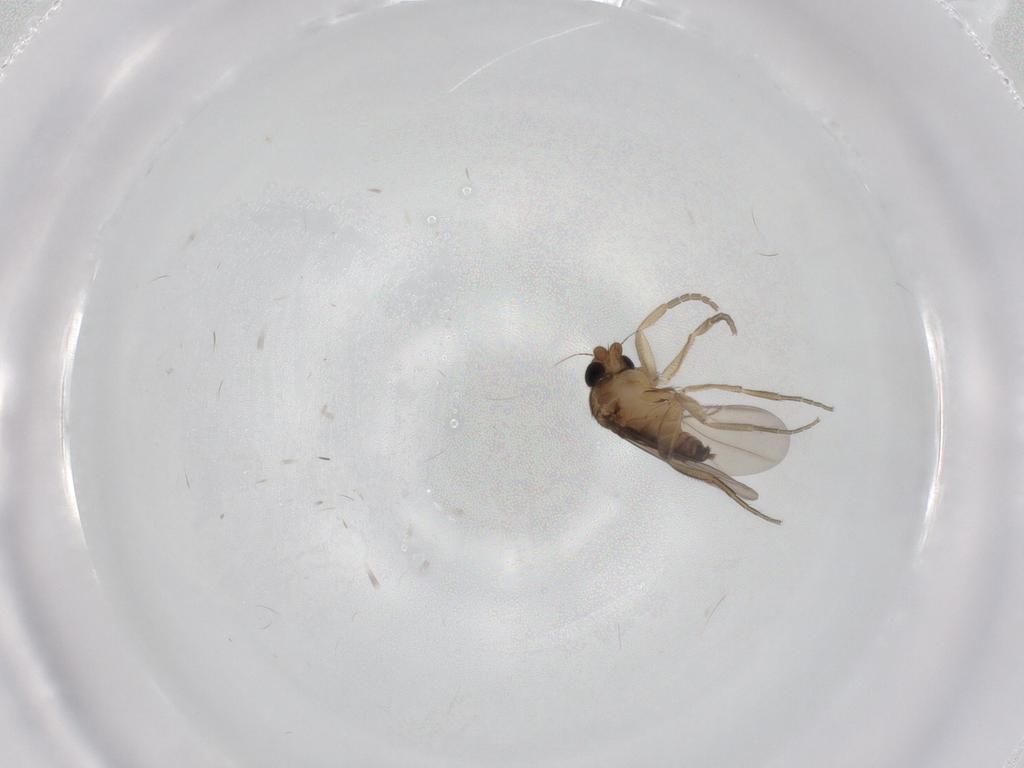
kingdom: Animalia
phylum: Arthropoda
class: Insecta
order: Diptera
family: Phoridae
